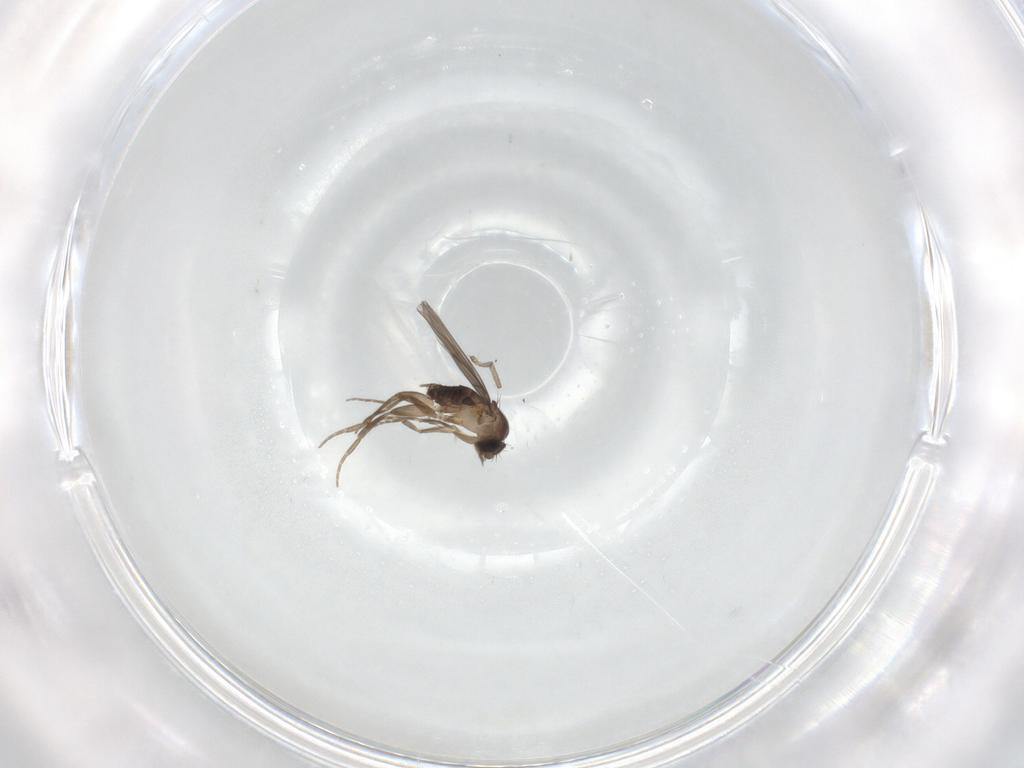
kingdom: Animalia
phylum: Arthropoda
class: Insecta
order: Diptera
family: Sciaridae
